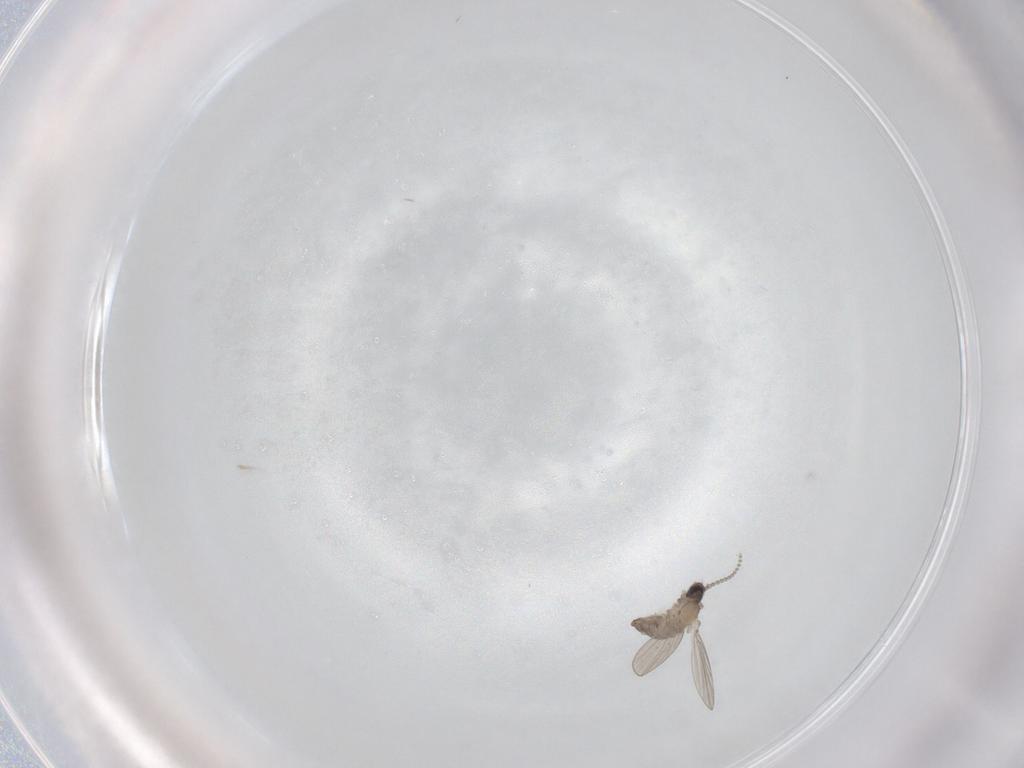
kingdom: Animalia
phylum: Arthropoda
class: Insecta
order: Diptera
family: Psychodidae
